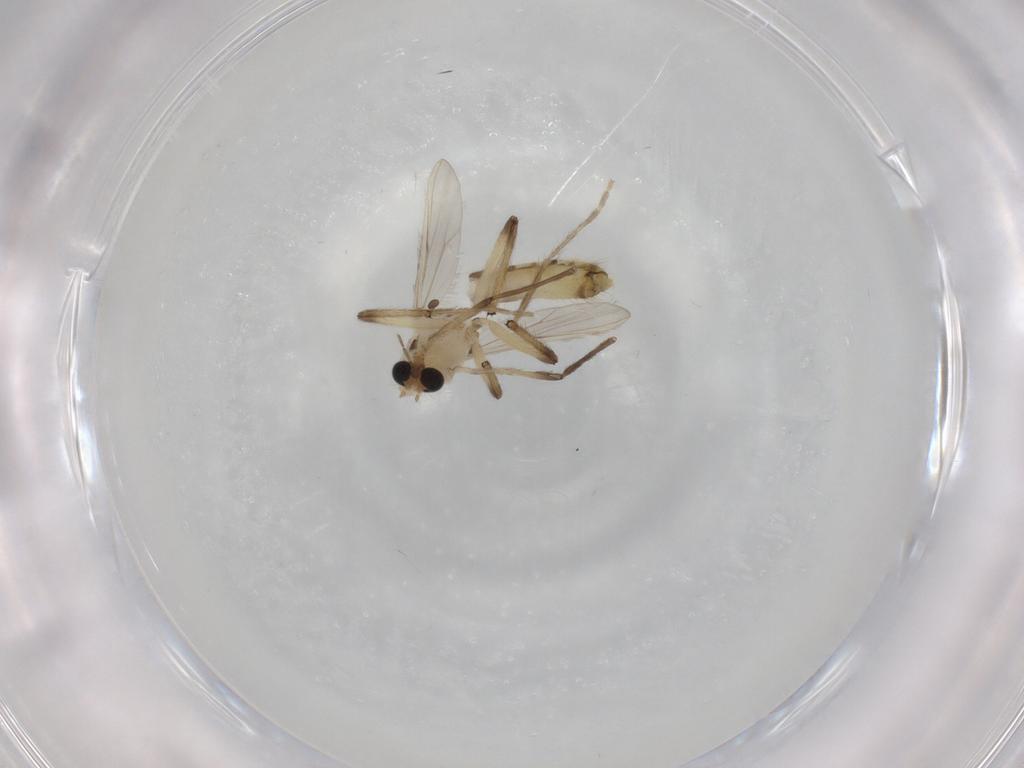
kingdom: Animalia
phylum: Arthropoda
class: Insecta
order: Diptera
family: Chironomidae
